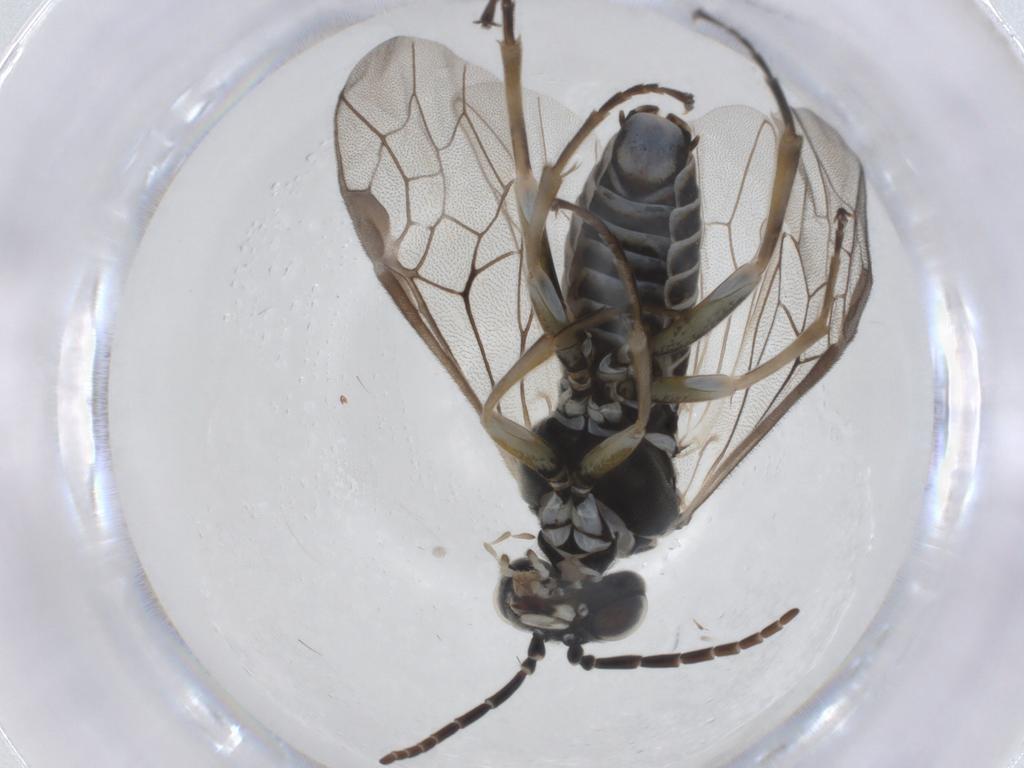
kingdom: Animalia
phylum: Arthropoda
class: Insecta
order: Hymenoptera
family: Tenthredinidae
